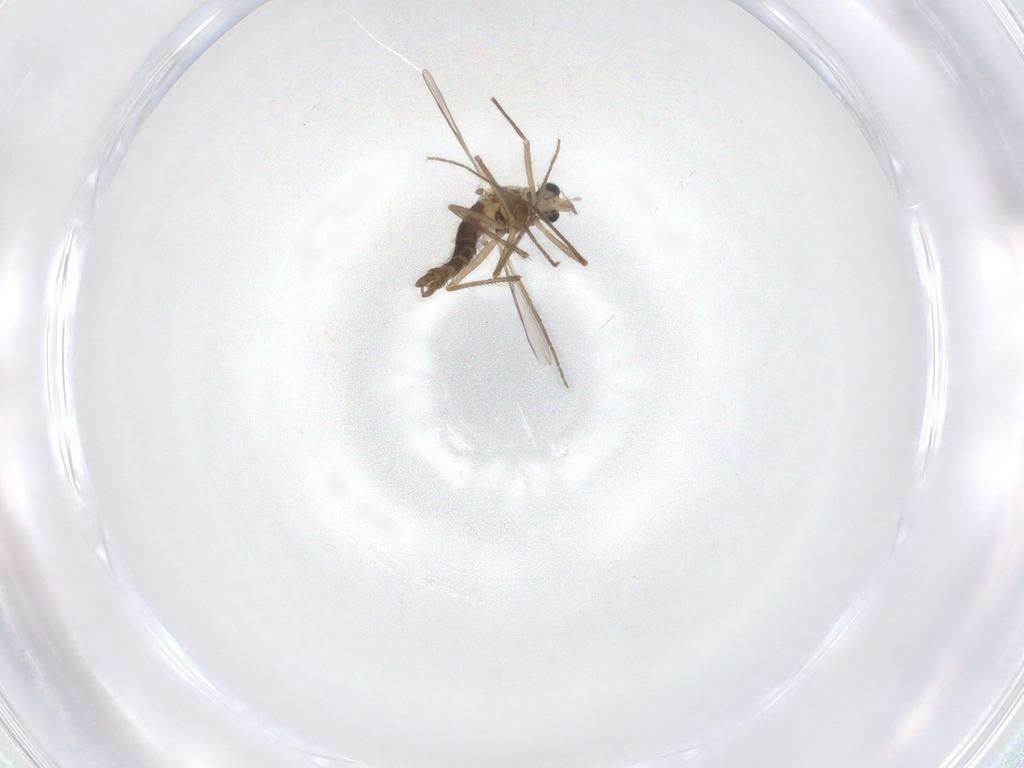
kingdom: Animalia
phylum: Arthropoda
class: Insecta
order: Diptera
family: Chironomidae
